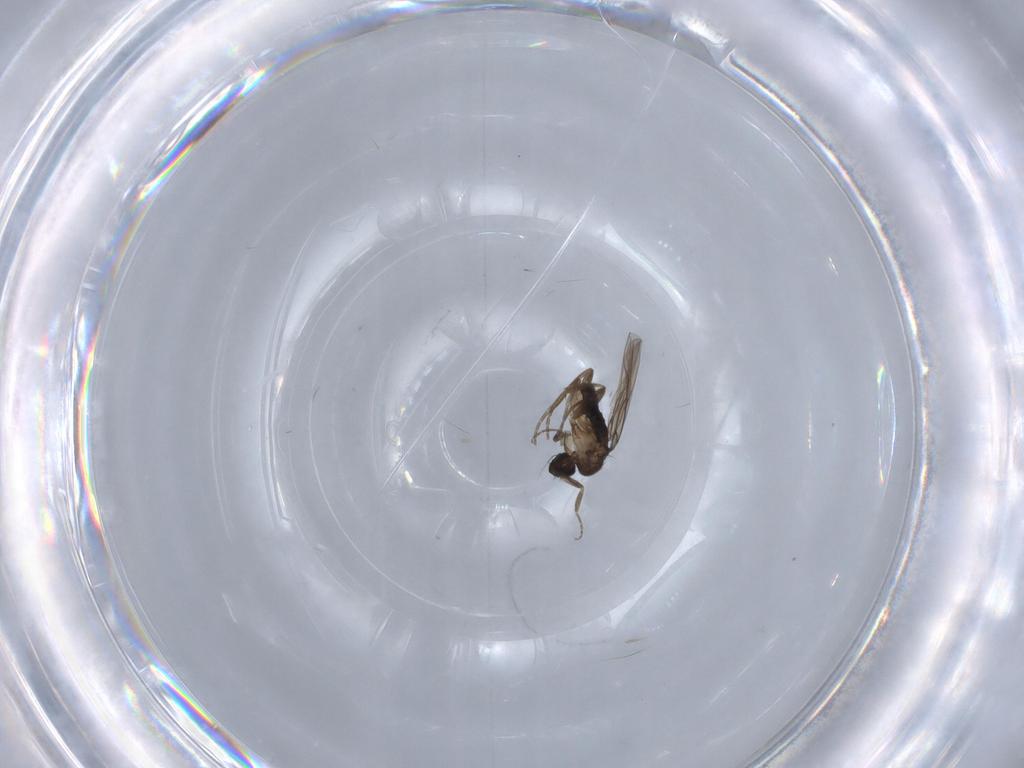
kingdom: Animalia
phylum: Arthropoda
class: Insecta
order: Diptera
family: Phoridae
